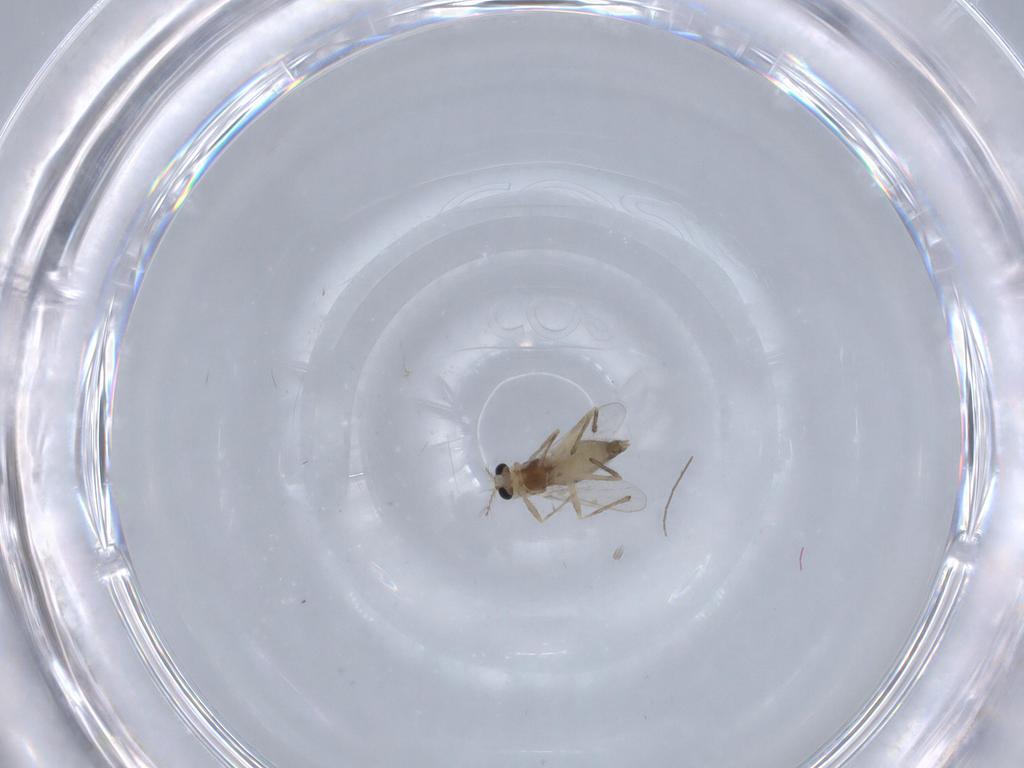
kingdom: Animalia
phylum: Arthropoda
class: Insecta
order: Diptera
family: Chironomidae
